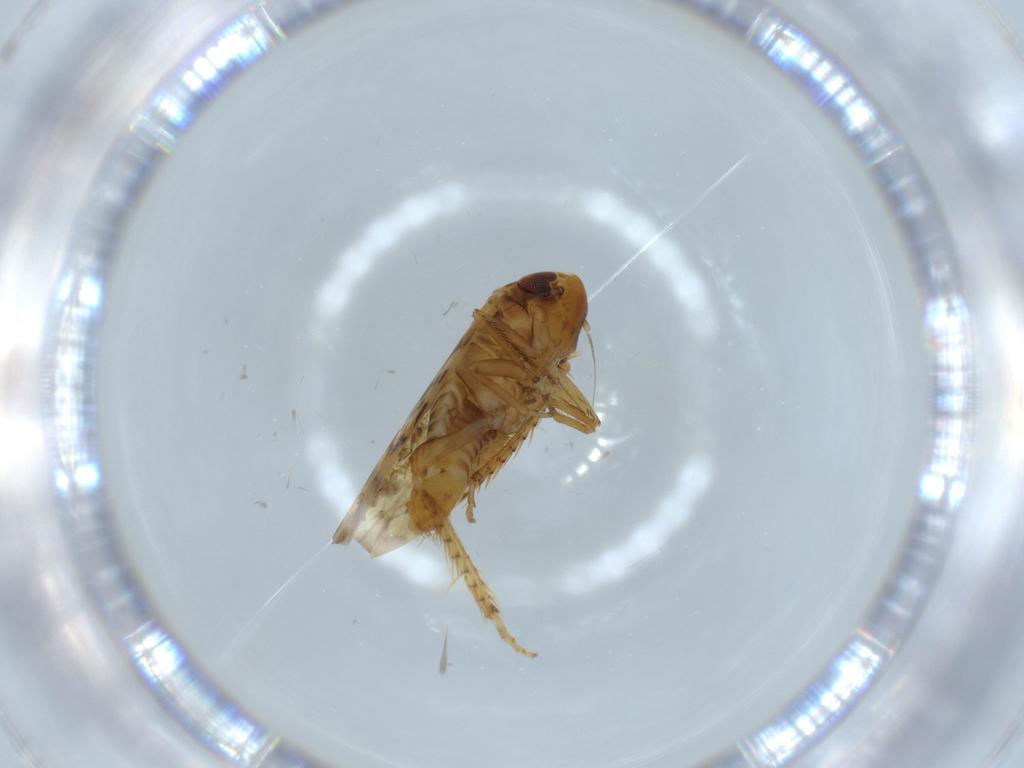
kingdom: Animalia
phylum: Arthropoda
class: Insecta
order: Hemiptera
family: Cicadellidae
